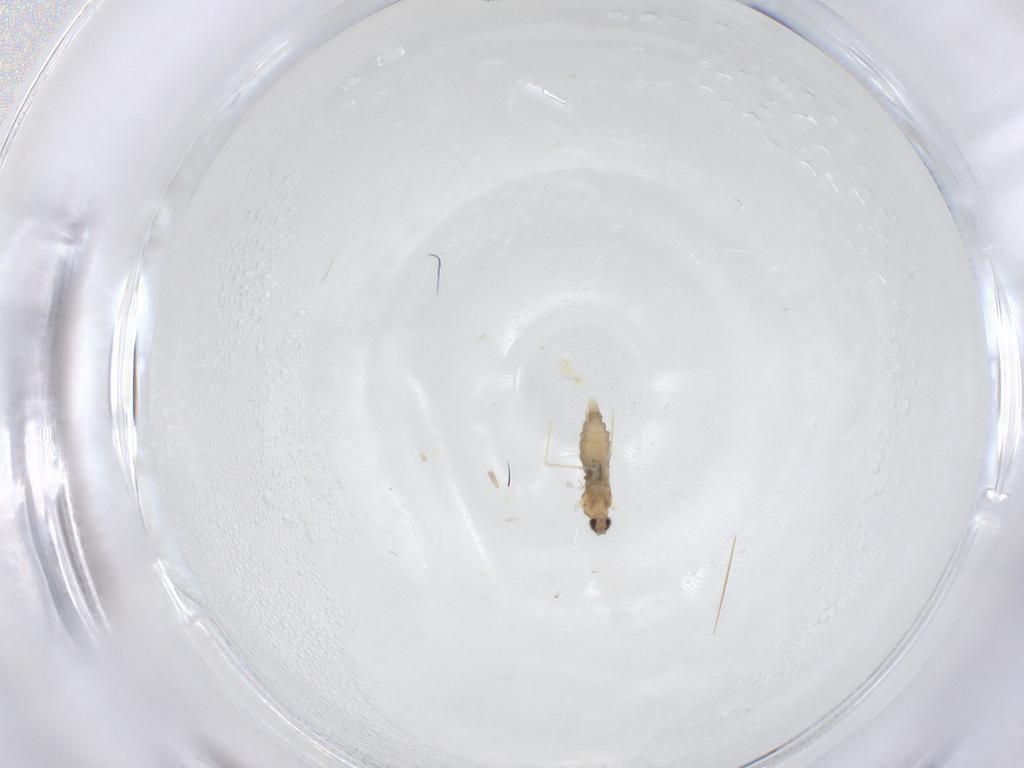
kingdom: Animalia
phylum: Arthropoda
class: Insecta
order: Diptera
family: Cecidomyiidae
